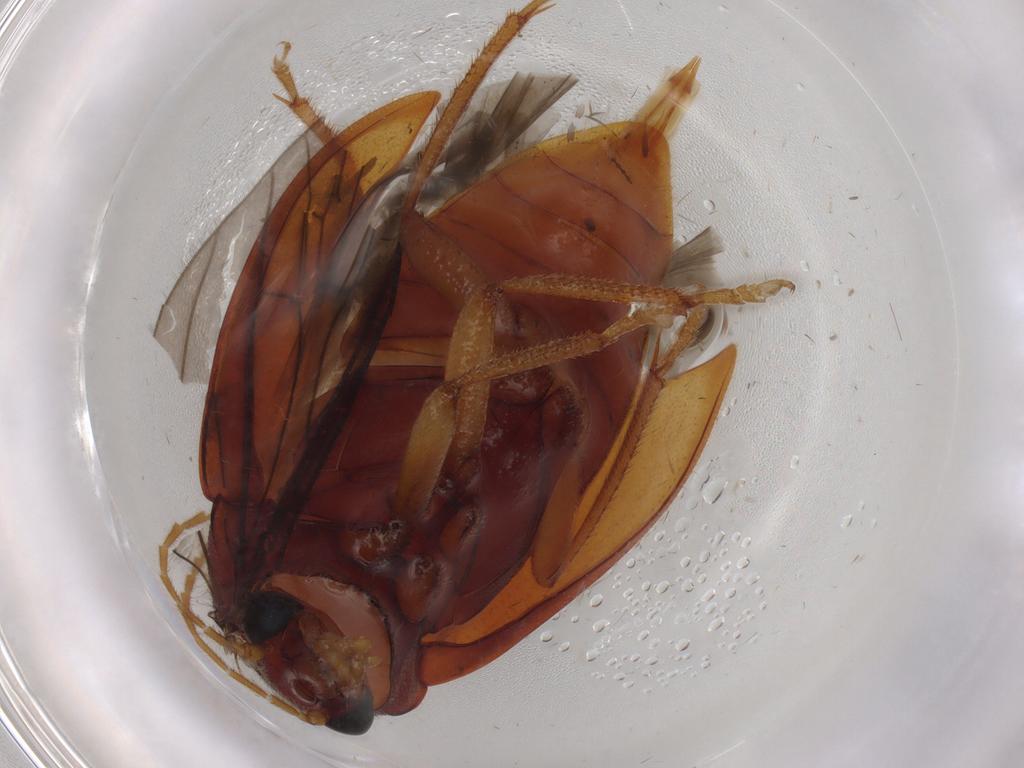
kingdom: Animalia
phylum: Arthropoda
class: Insecta
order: Coleoptera
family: Ptilodactylidae
